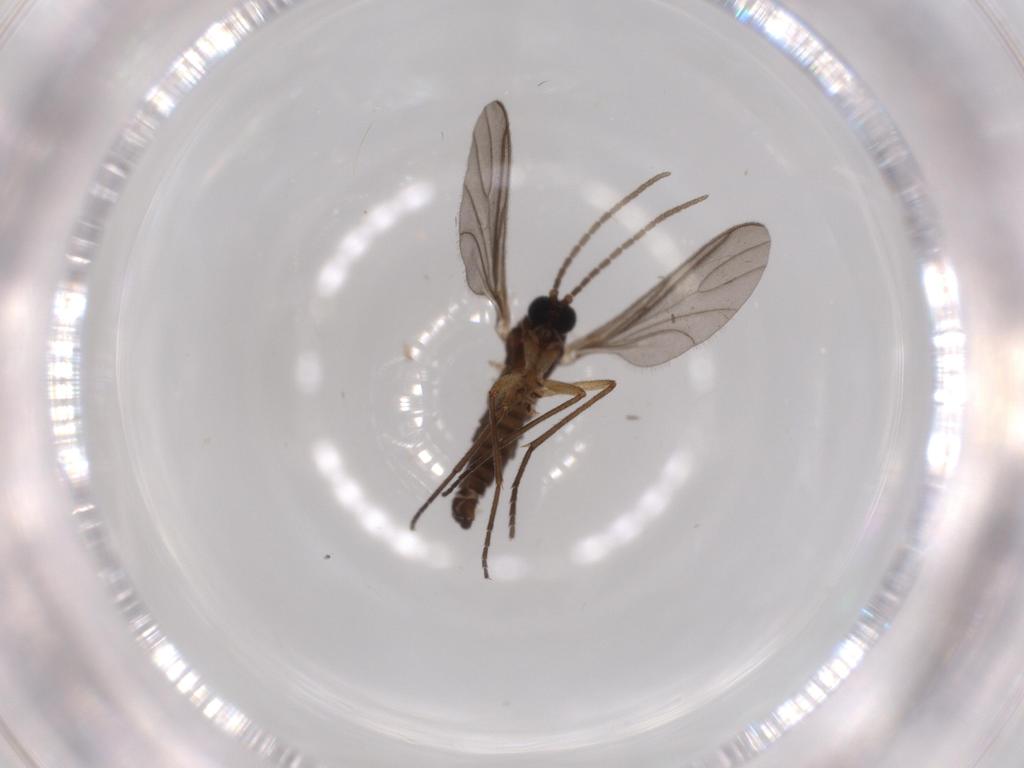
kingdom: Animalia
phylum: Arthropoda
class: Insecta
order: Diptera
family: Sciaridae
